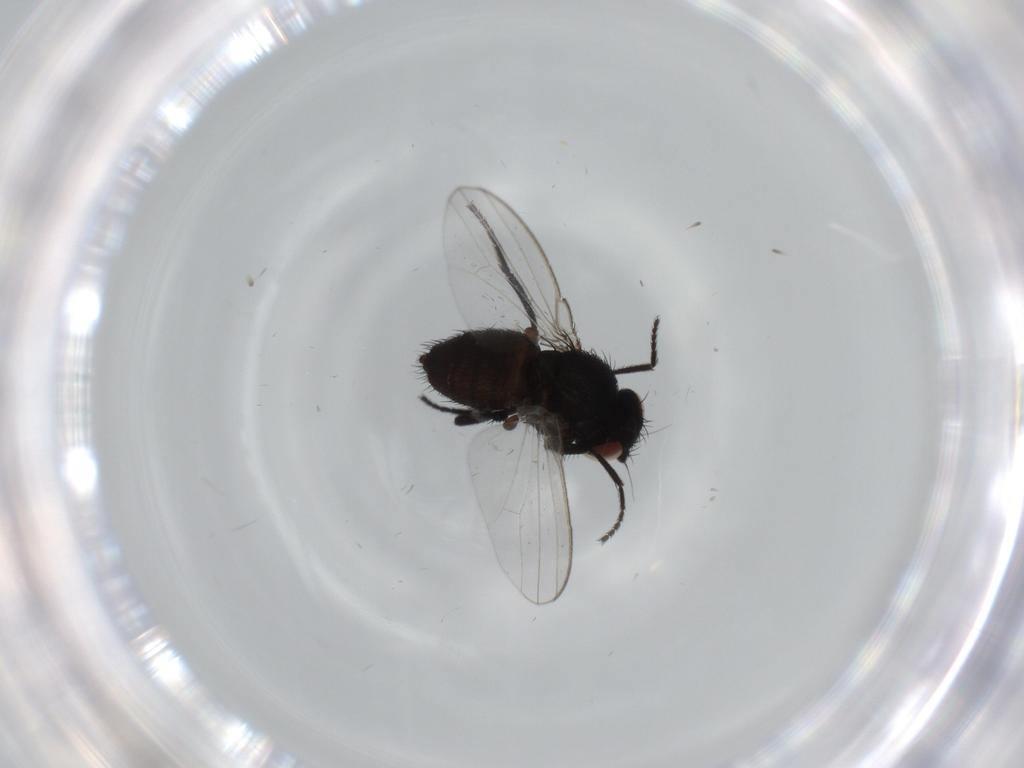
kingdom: Animalia
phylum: Arthropoda
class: Insecta
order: Diptera
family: Milichiidae
